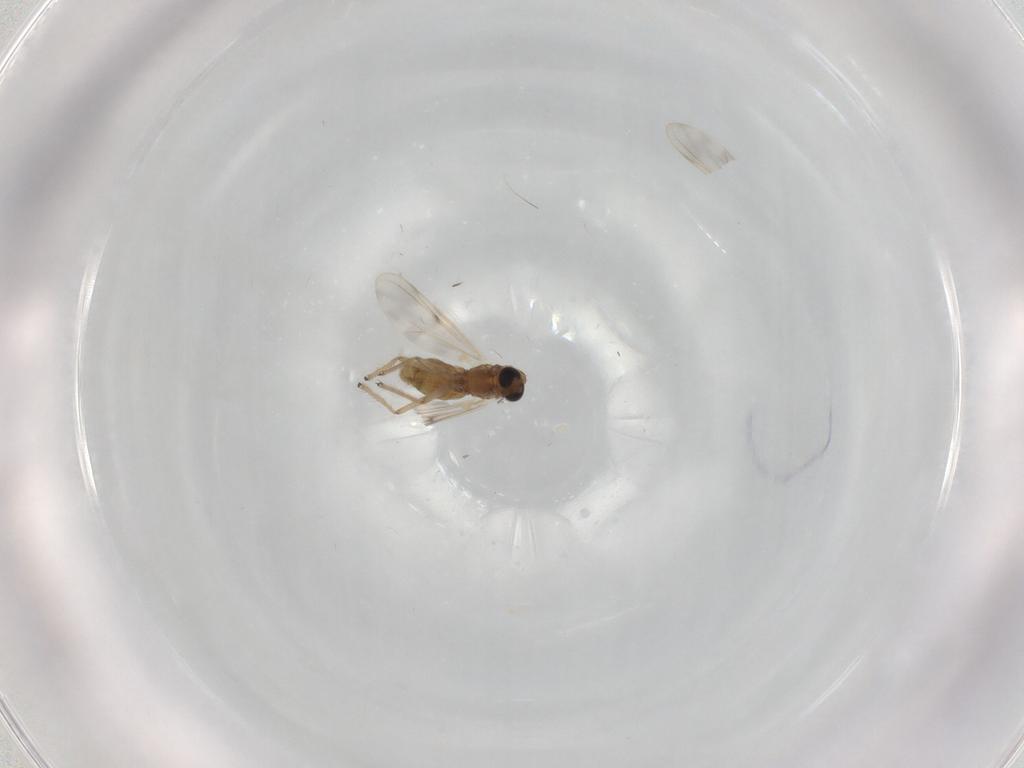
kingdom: Animalia
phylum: Arthropoda
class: Insecta
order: Diptera
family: Chironomidae
